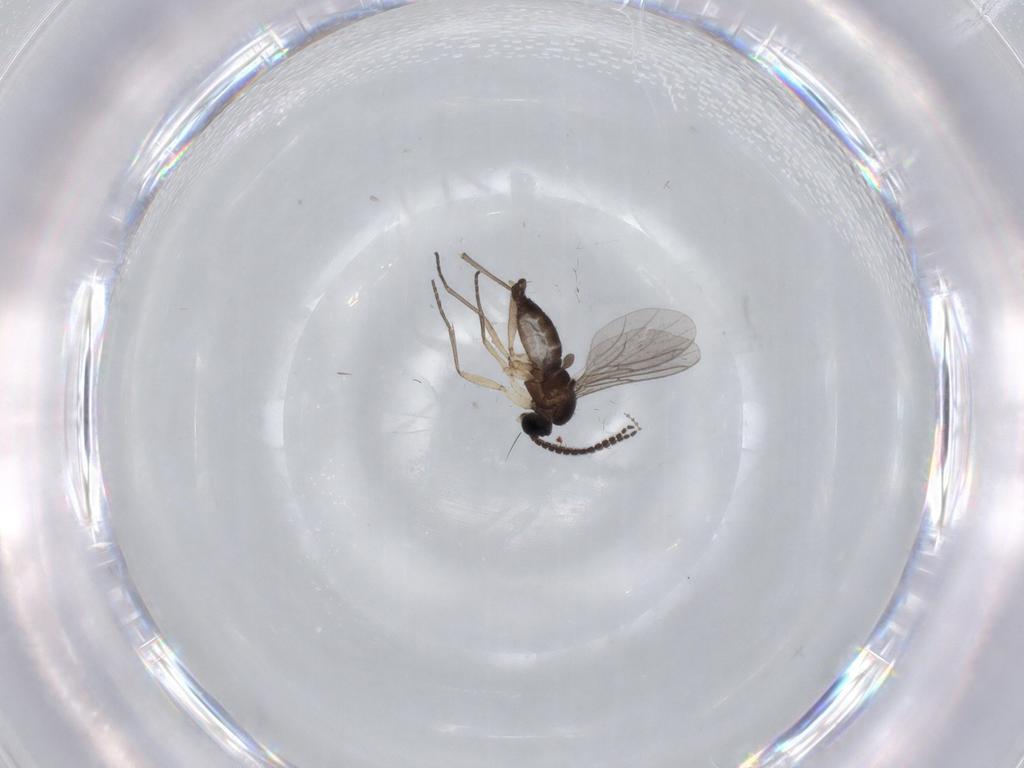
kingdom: Animalia
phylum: Arthropoda
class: Insecta
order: Diptera
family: Sciaridae
